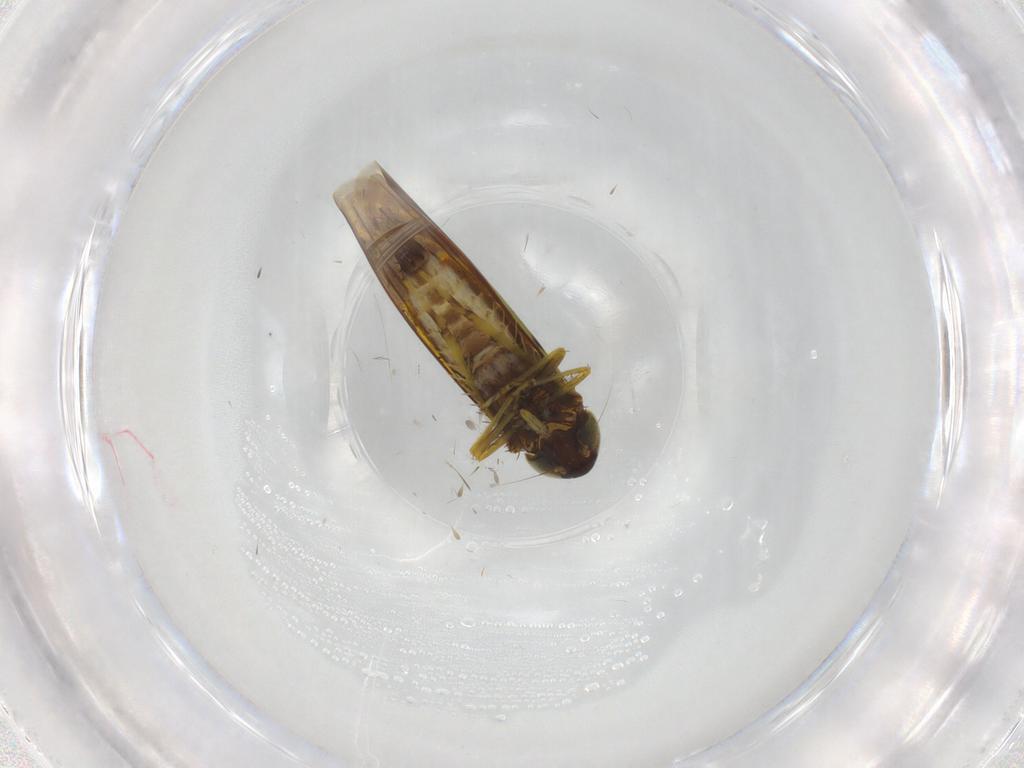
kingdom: Animalia
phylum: Arthropoda
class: Insecta
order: Hemiptera
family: Cicadellidae
